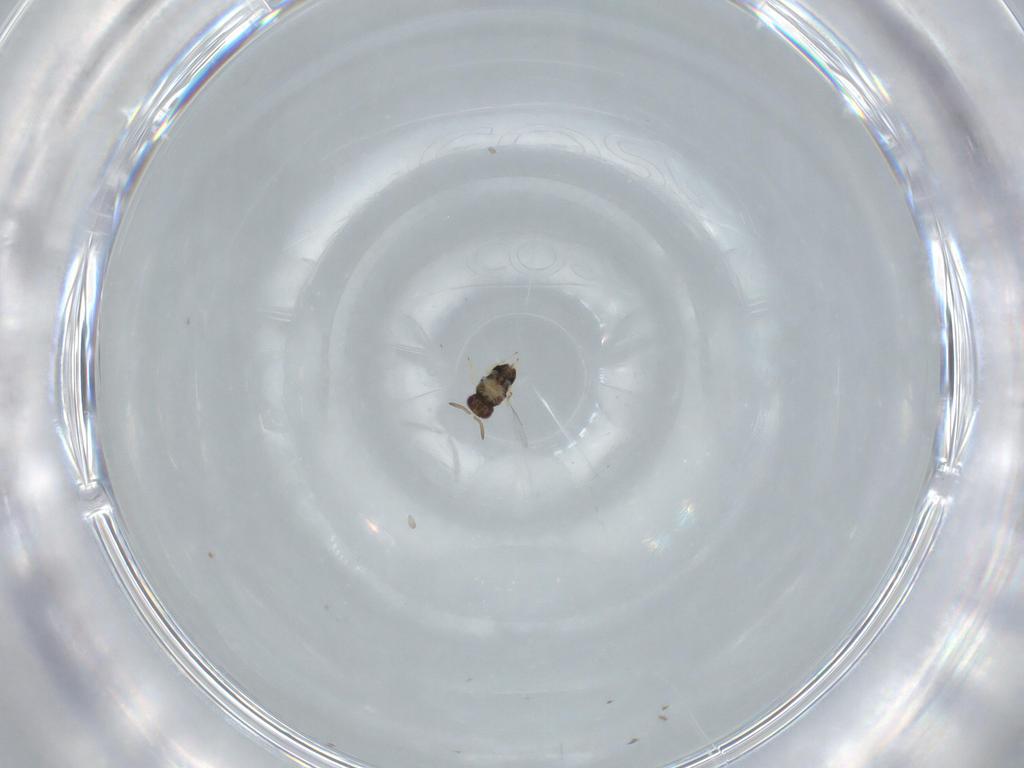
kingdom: Animalia
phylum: Arthropoda
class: Insecta
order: Hymenoptera
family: Aphelinidae
